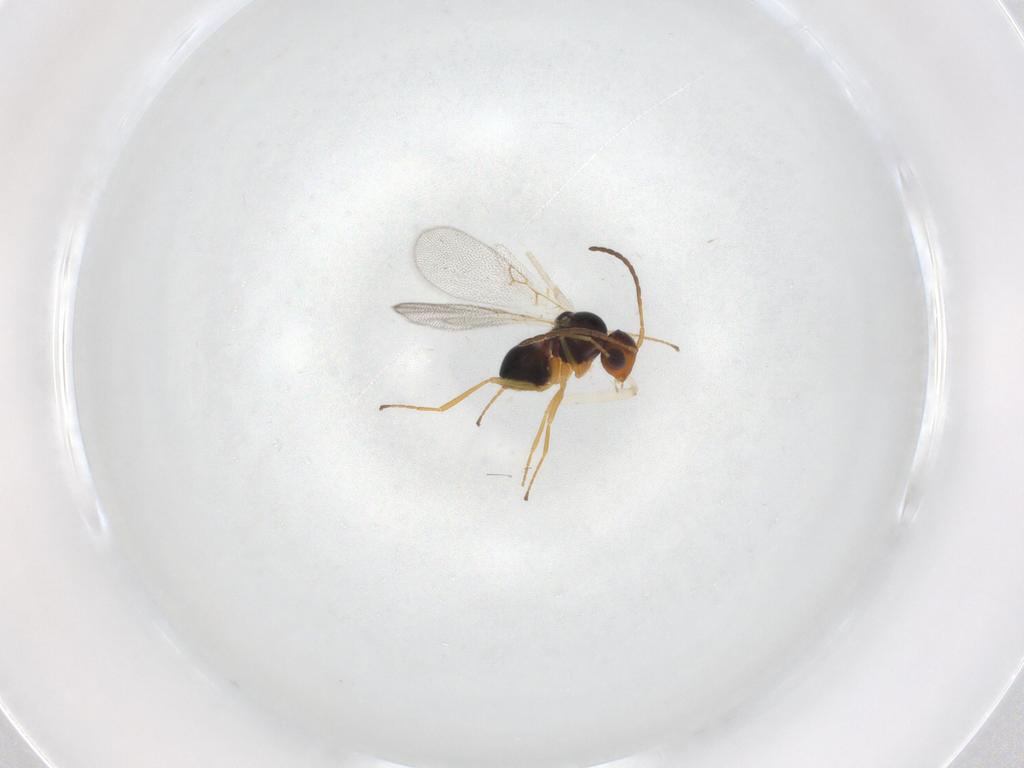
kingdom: Animalia
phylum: Arthropoda
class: Insecta
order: Hymenoptera
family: Figitidae
